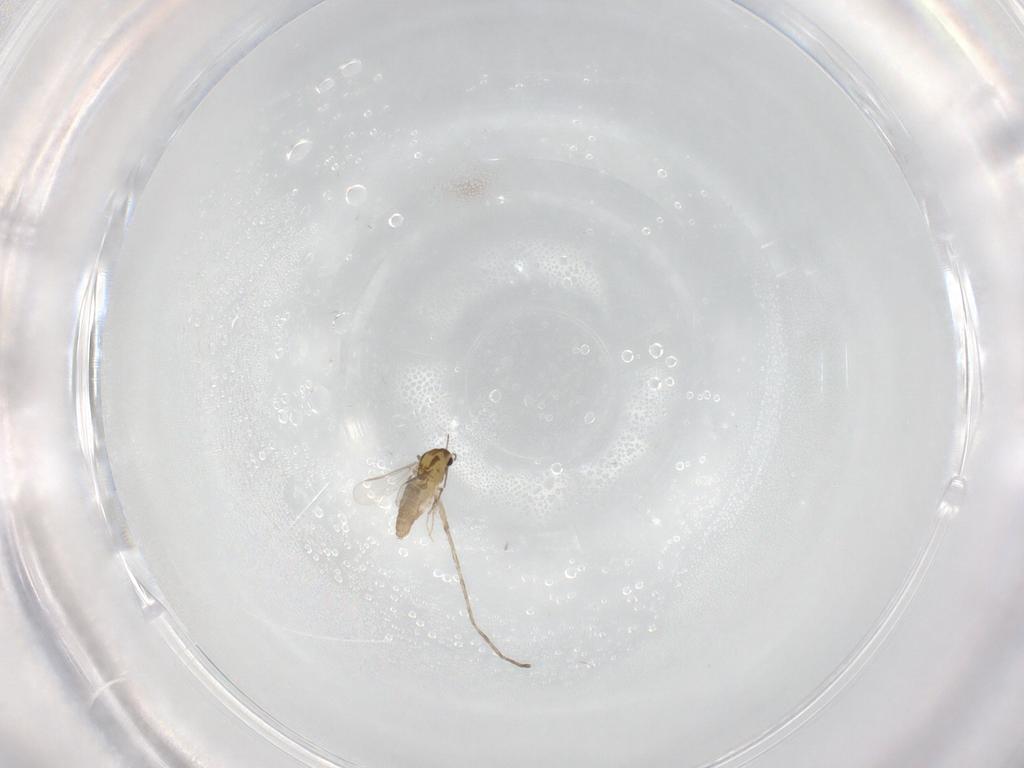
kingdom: Animalia
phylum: Arthropoda
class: Insecta
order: Diptera
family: Chironomidae
